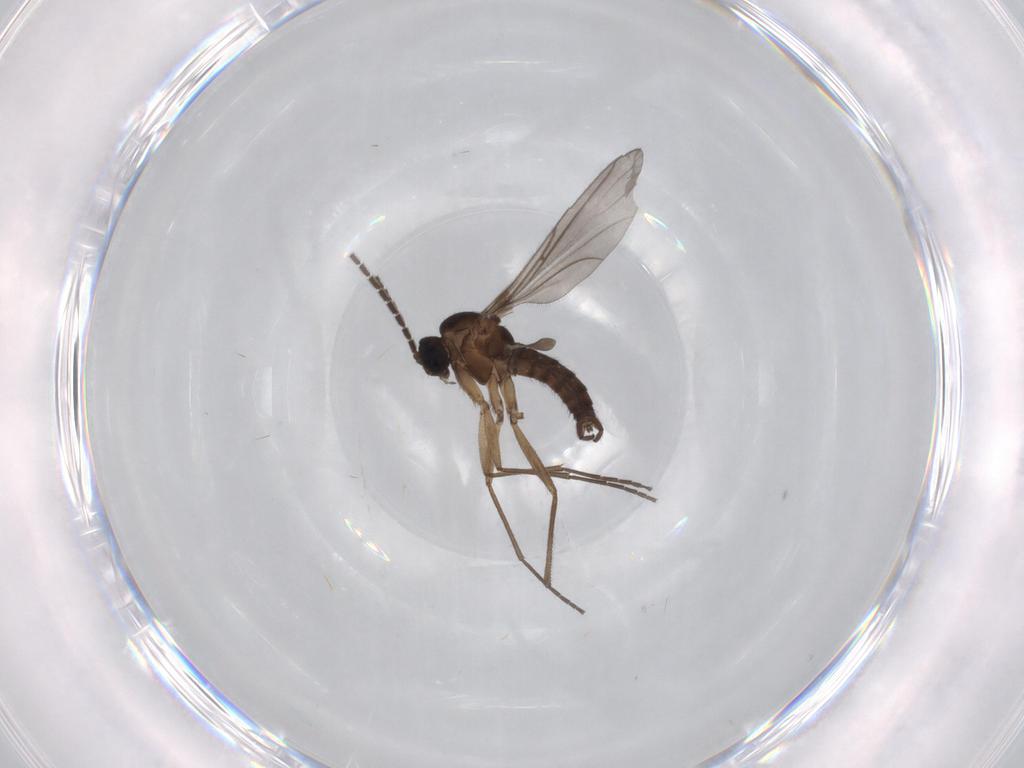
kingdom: Animalia
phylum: Arthropoda
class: Insecta
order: Diptera
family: Sciaridae
